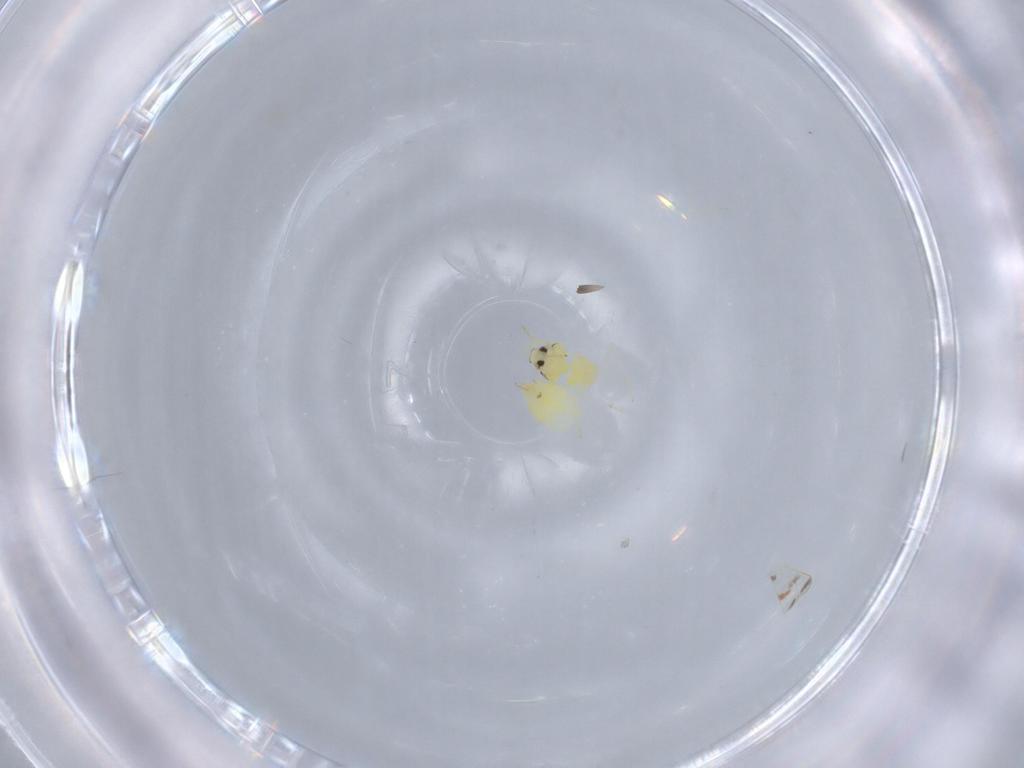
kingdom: Animalia
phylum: Arthropoda
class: Insecta
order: Hemiptera
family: Aleyrodidae
